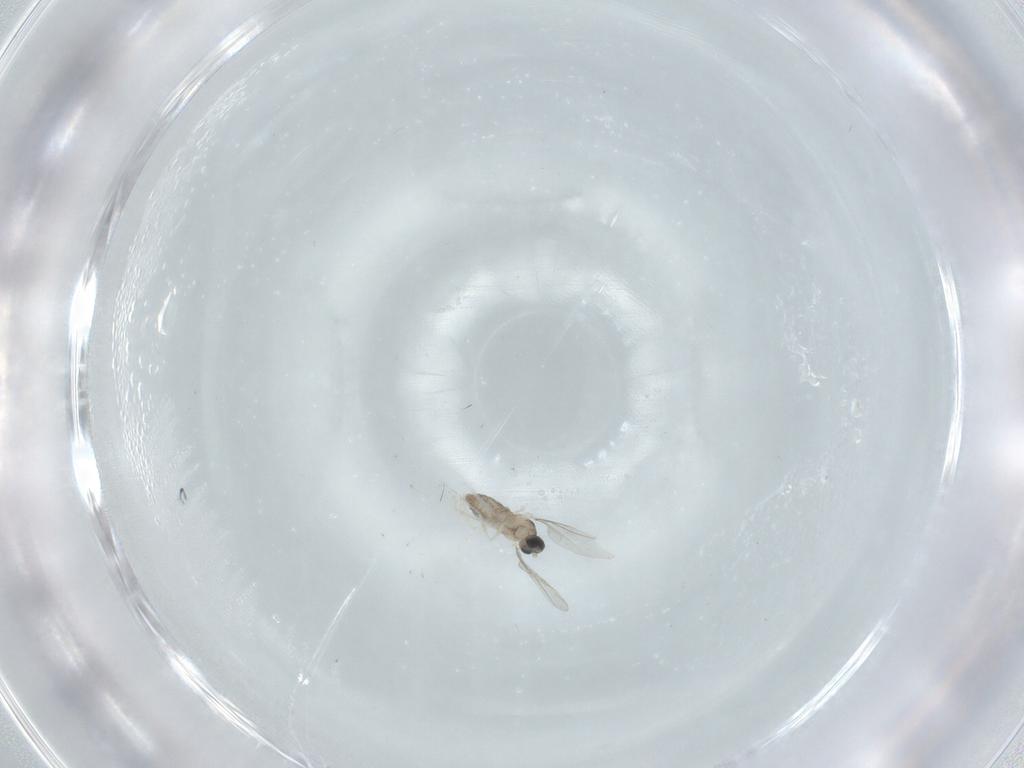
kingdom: Animalia
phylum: Arthropoda
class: Insecta
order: Diptera
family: Cecidomyiidae
